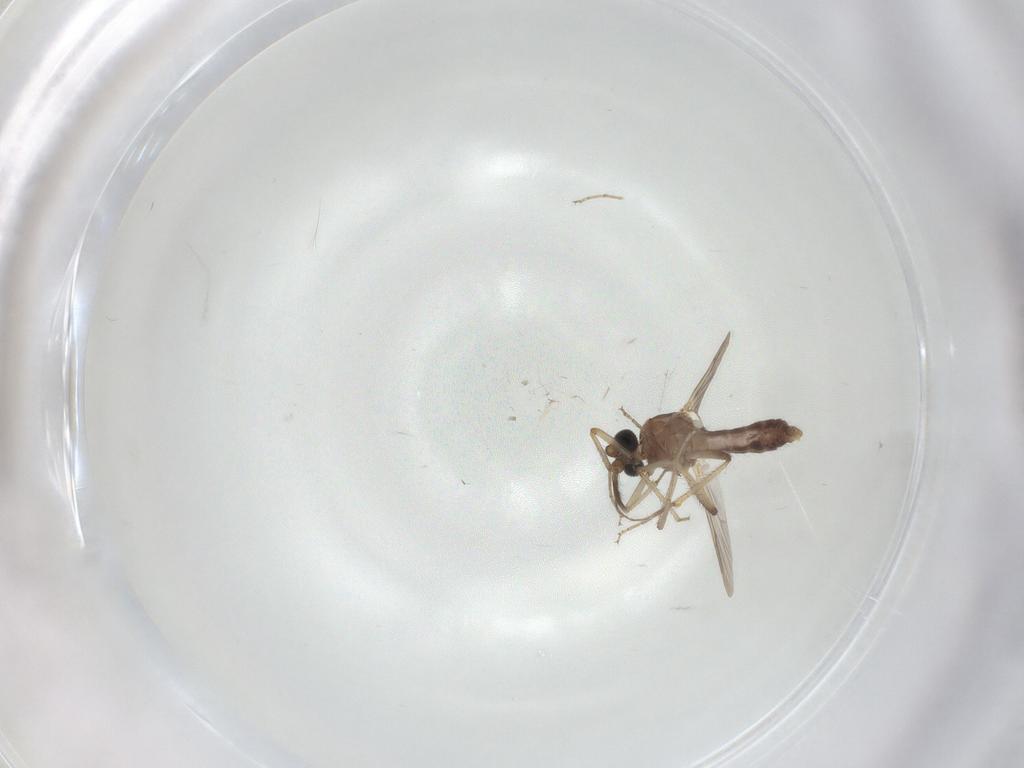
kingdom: Animalia
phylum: Arthropoda
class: Insecta
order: Diptera
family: Ceratopogonidae
